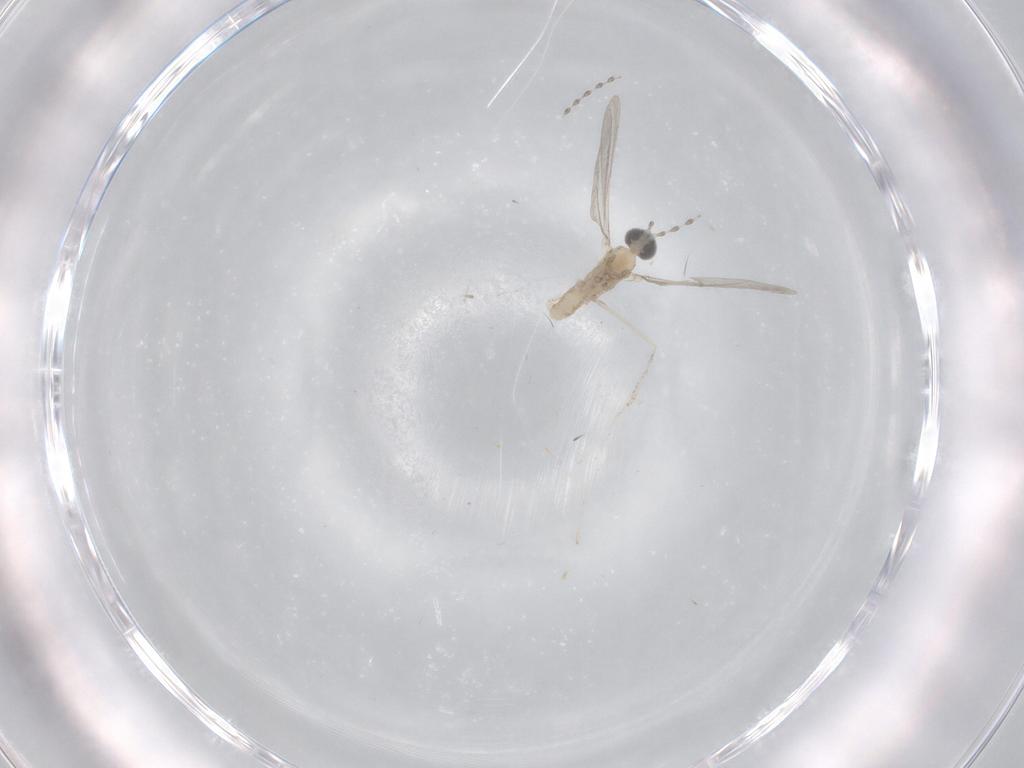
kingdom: Animalia
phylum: Arthropoda
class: Insecta
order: Diptera
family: Cecidomyiidae
